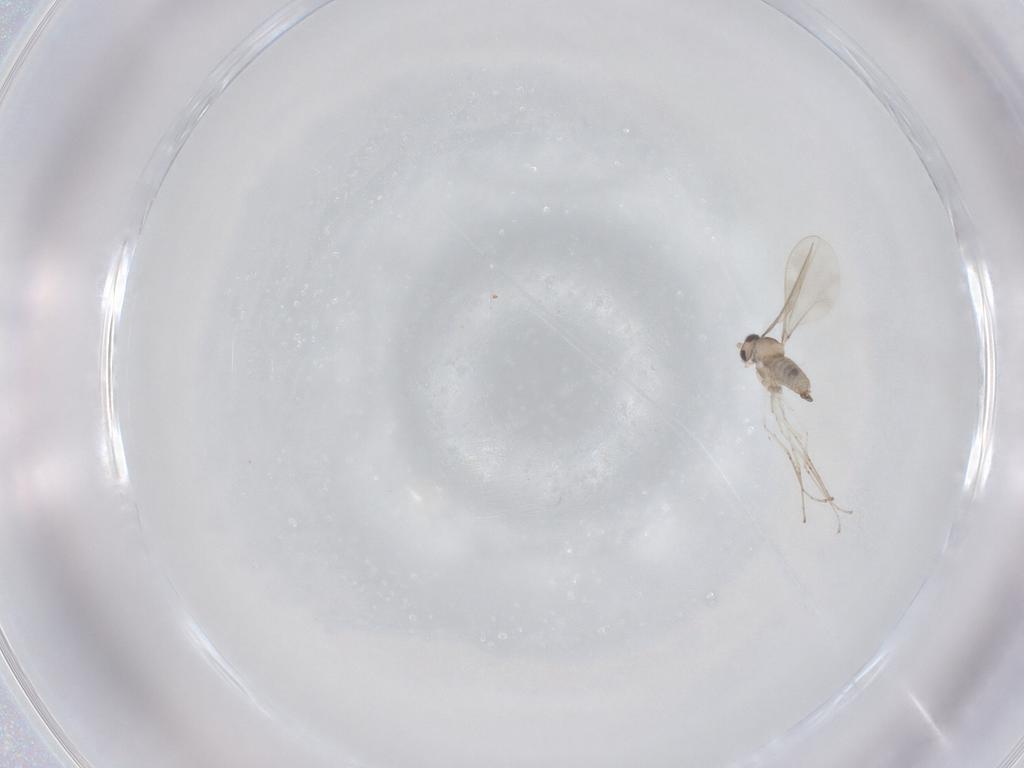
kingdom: Animalia
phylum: Arthropoda
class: Insecta
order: Diptera
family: Cecidomyiidae
